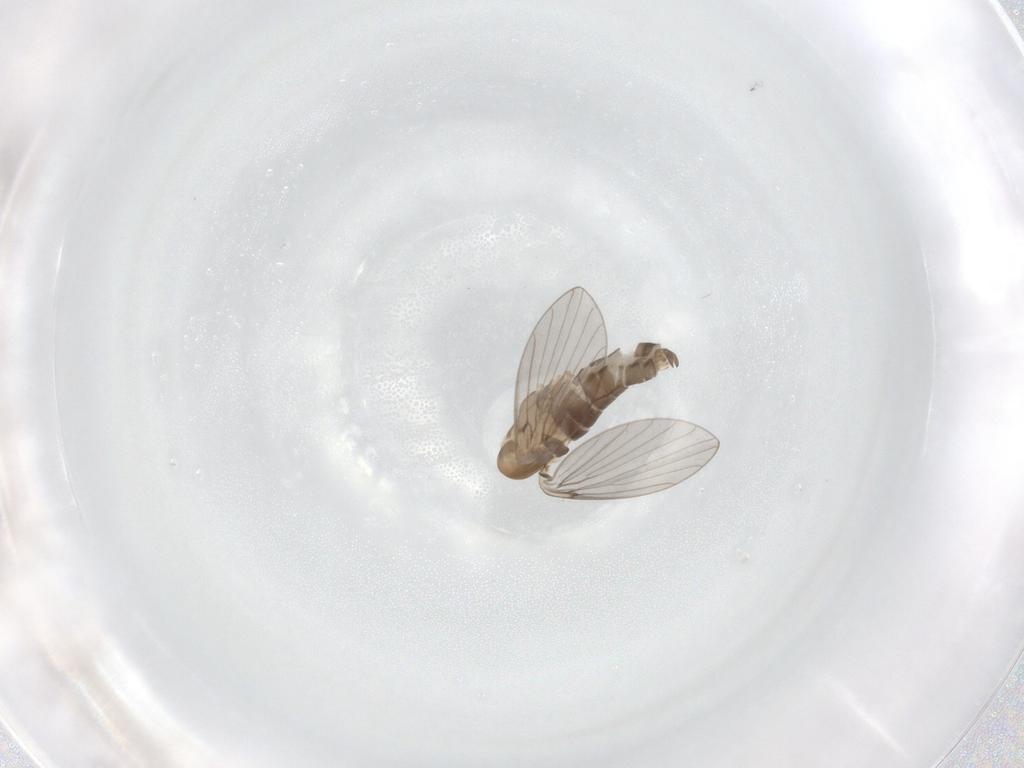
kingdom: Animalia
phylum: Arthropoda
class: Insecta
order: Diptera
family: Psychodidae
